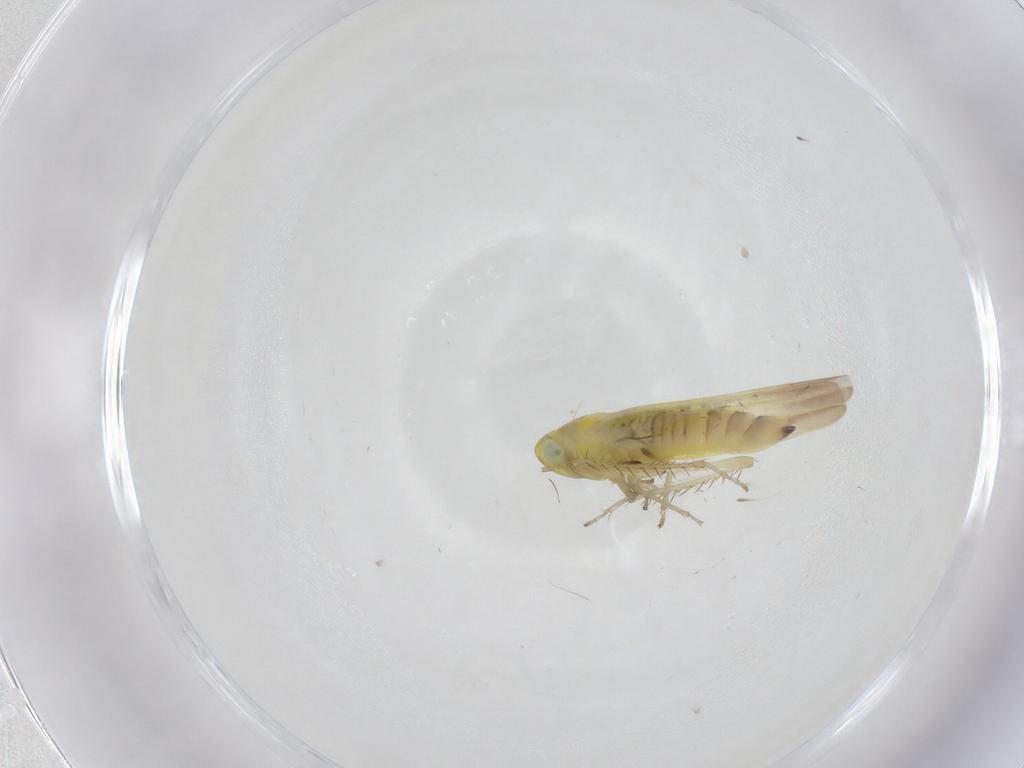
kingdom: Animalia
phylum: Arthropoda
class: Insecta
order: Hemiptera
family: Cicadellidae
